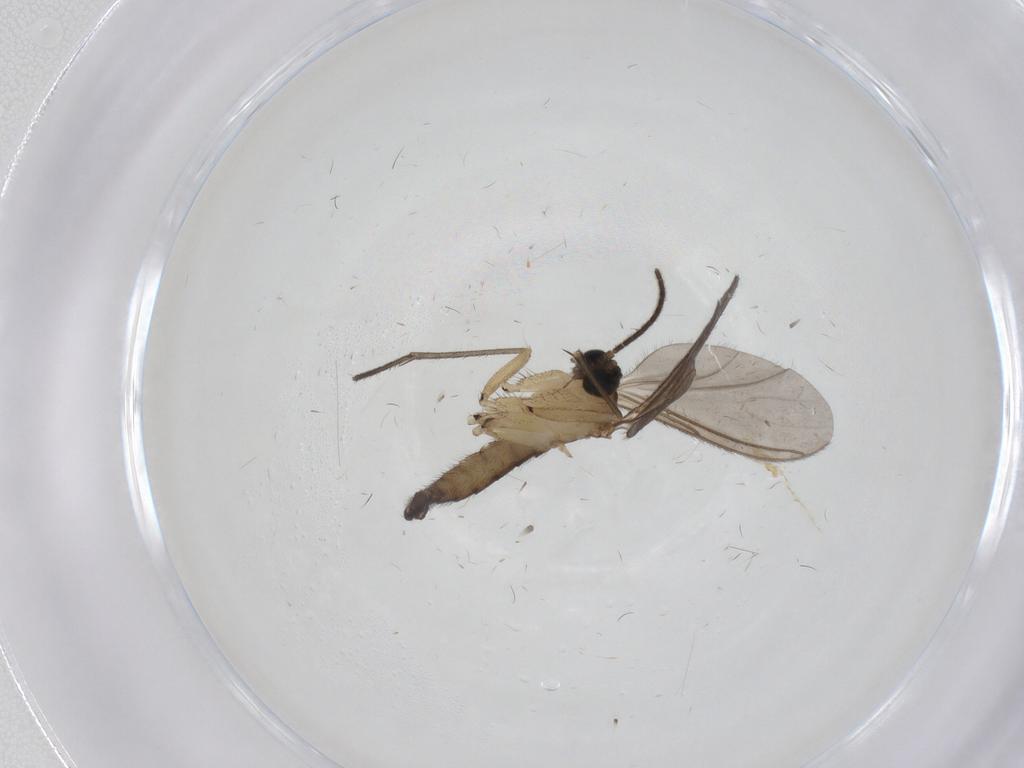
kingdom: Animalia
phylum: Arthropoda
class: Insecta
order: Diptera
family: Sciaridae
